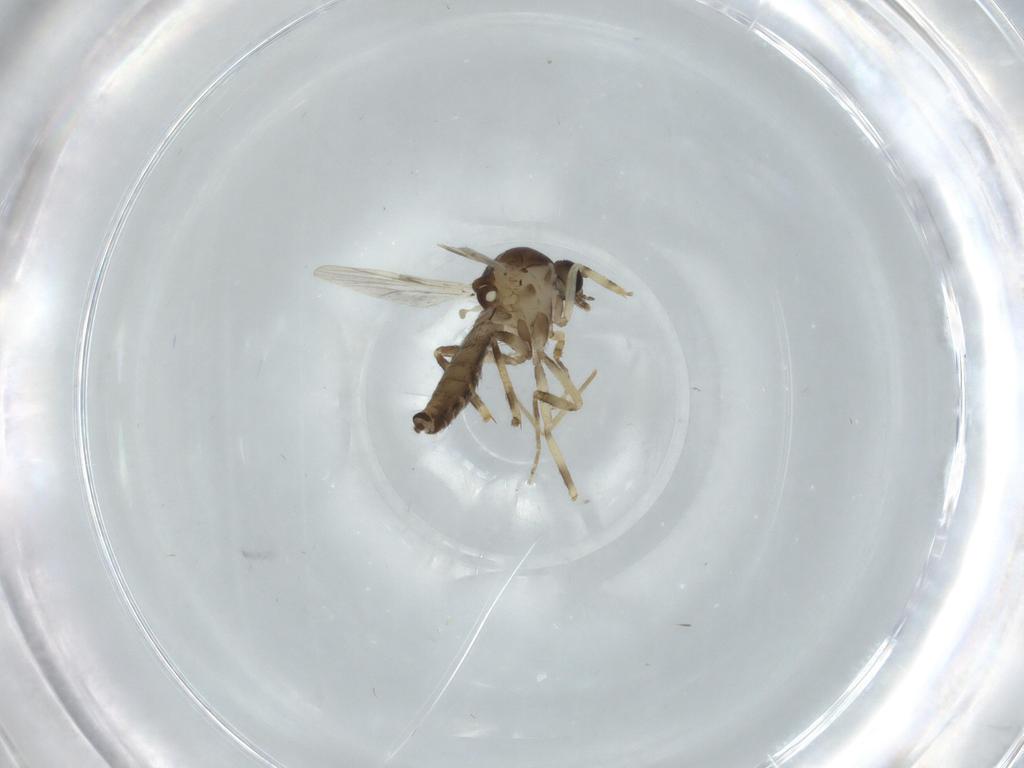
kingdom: Animalia
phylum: Arthropoda
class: Insecta
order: Diptera
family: Ceratopogonidae
